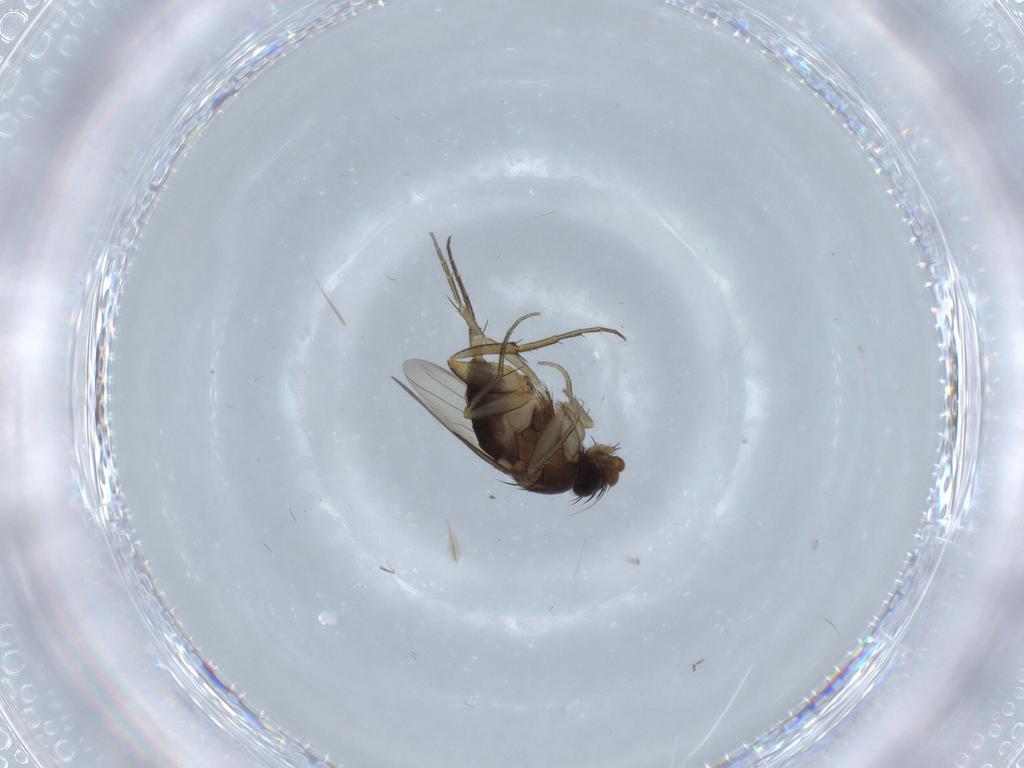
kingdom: Animalia
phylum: Arthropoda
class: Insecta
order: Diptera
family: Phoridae
